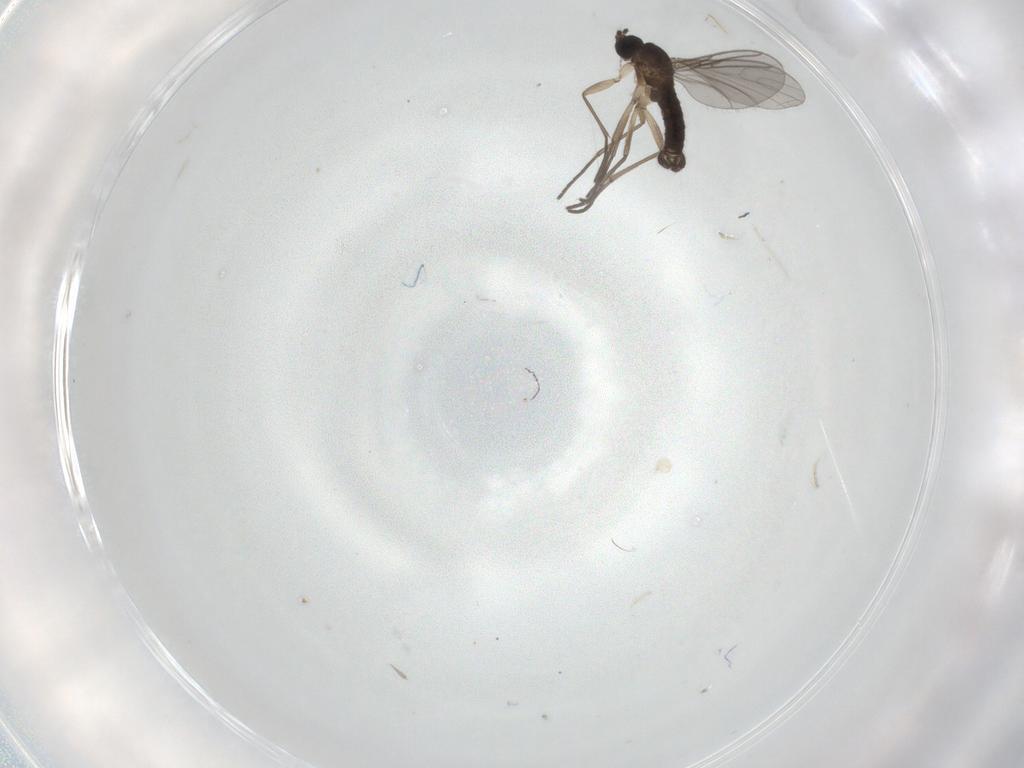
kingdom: Animalia
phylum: Arthropoda
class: Insecta
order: Diptera
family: Sciaridae
